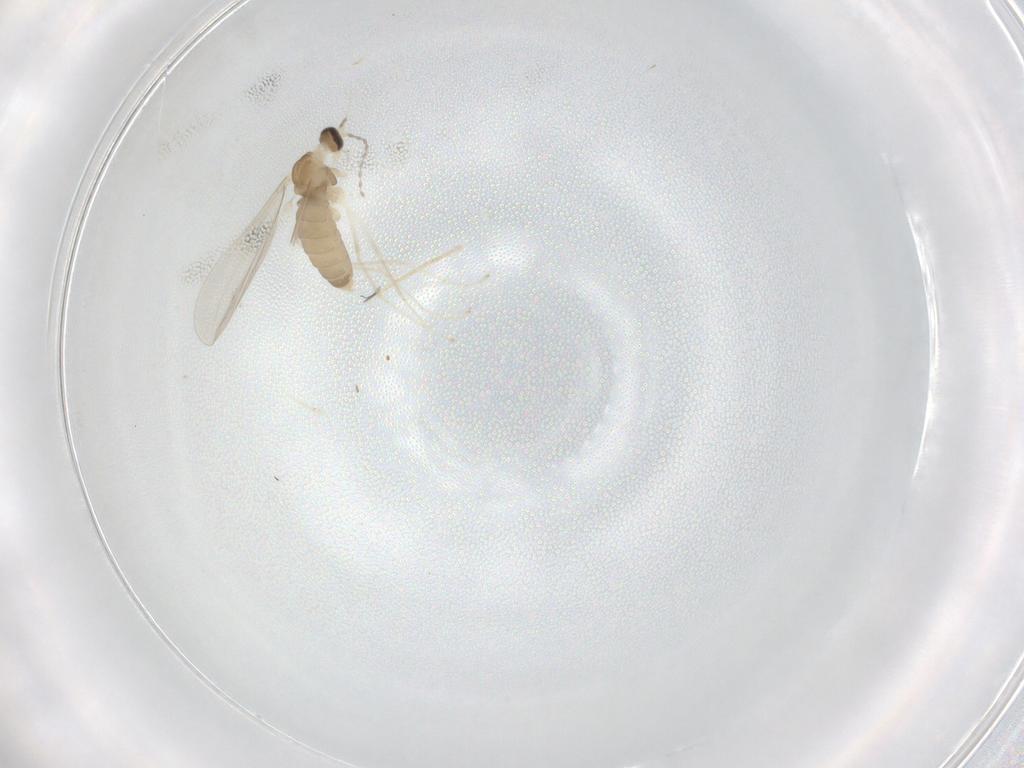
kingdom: Animalia
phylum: Arthropoda
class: Insecta
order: Diptera
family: Cecidomyiidae
